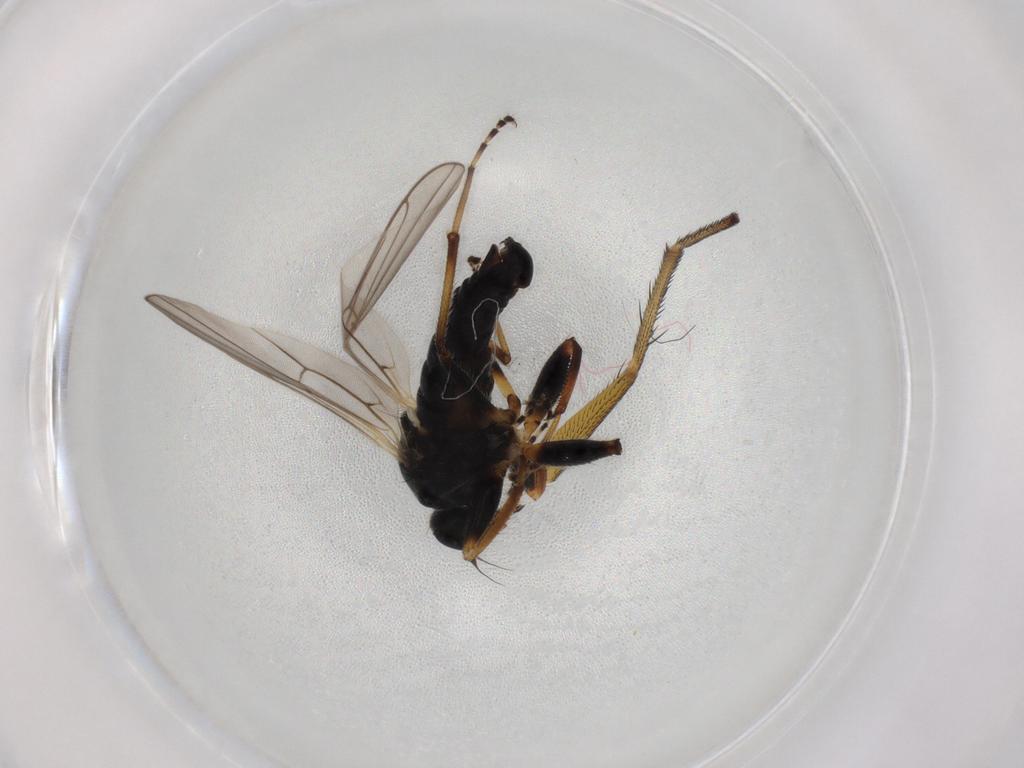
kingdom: Animalia
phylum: Arthropoda
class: Insecta
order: Diptera
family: Hybotidae
